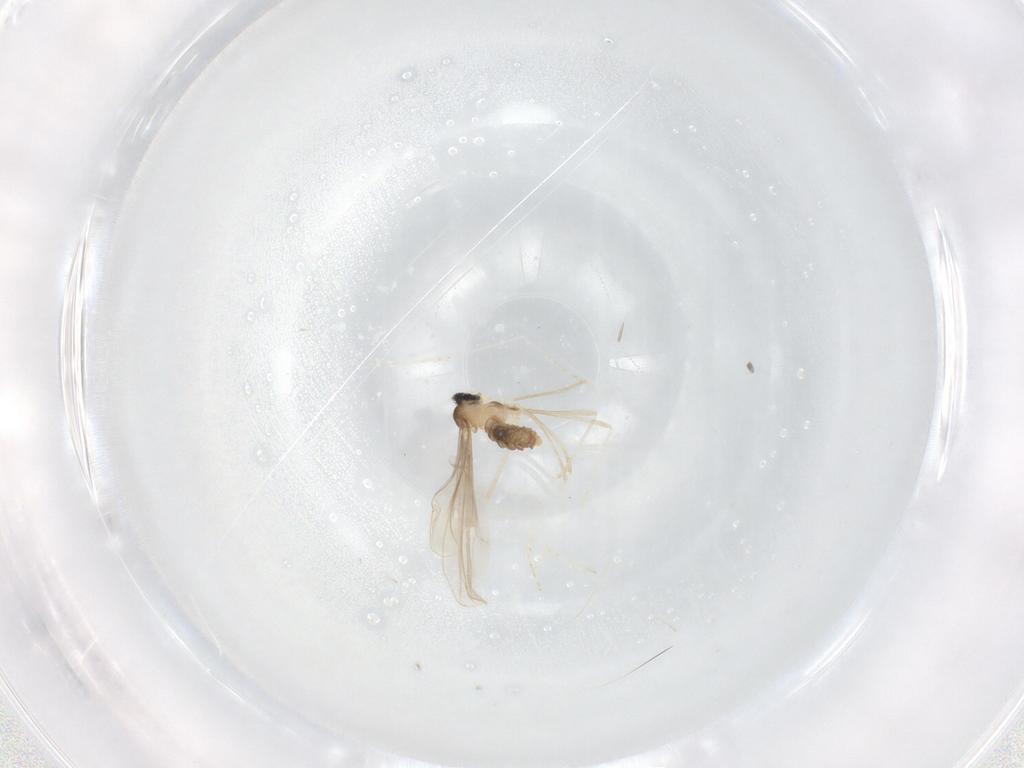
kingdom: Animalia
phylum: Arthropoda
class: Insecta
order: Diptera
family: Cecidomyiidae
